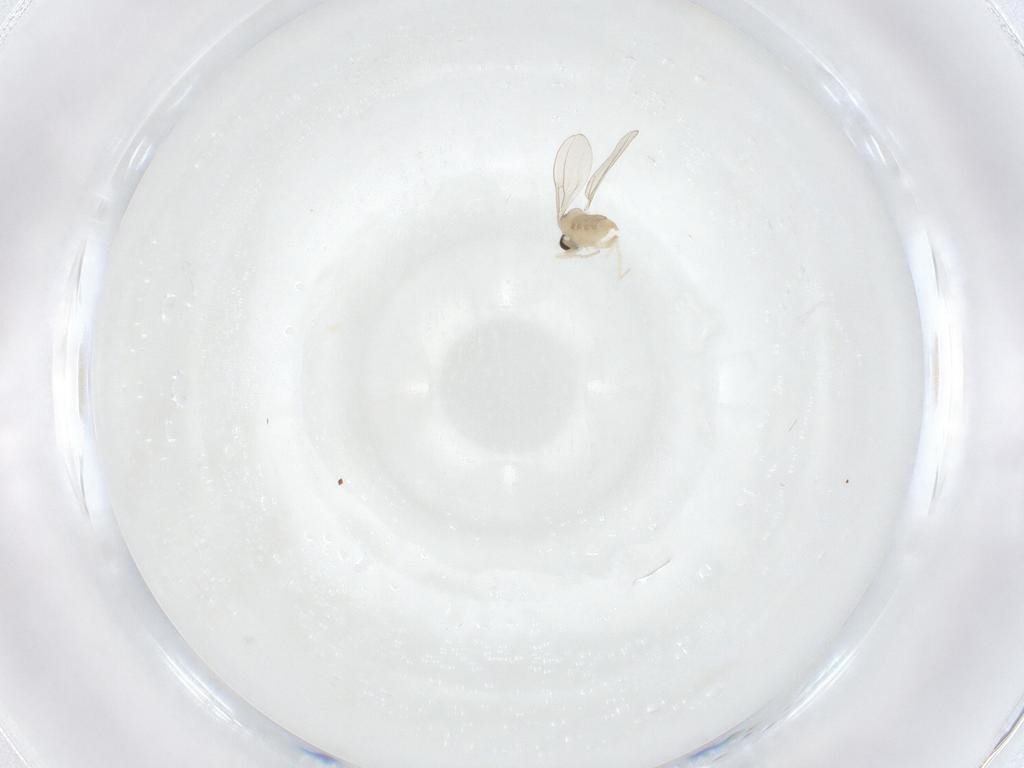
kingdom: Animalia
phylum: Arthropoda
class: Insecta
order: Diptera
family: Cecidomyiidae
